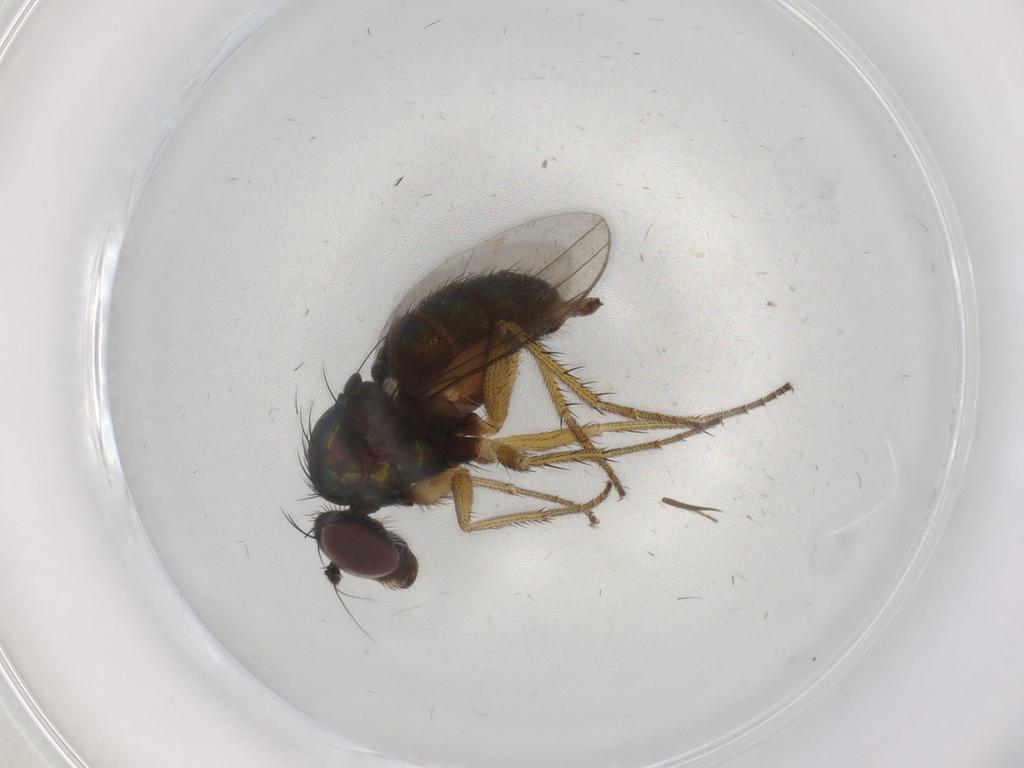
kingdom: Animalia
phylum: Arthropoda
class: Insecta
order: Diptera
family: Dolichopodidae
